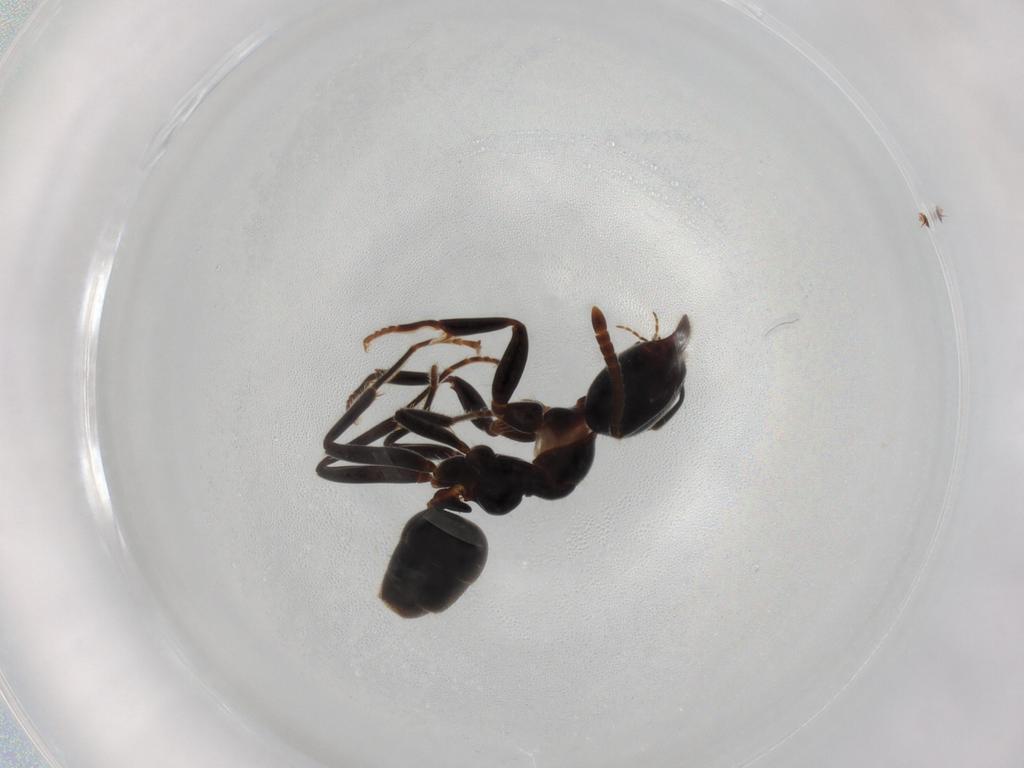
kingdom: Animalia
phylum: Arthropoda
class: Insecta
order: Hymenoptera
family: Formicidae
